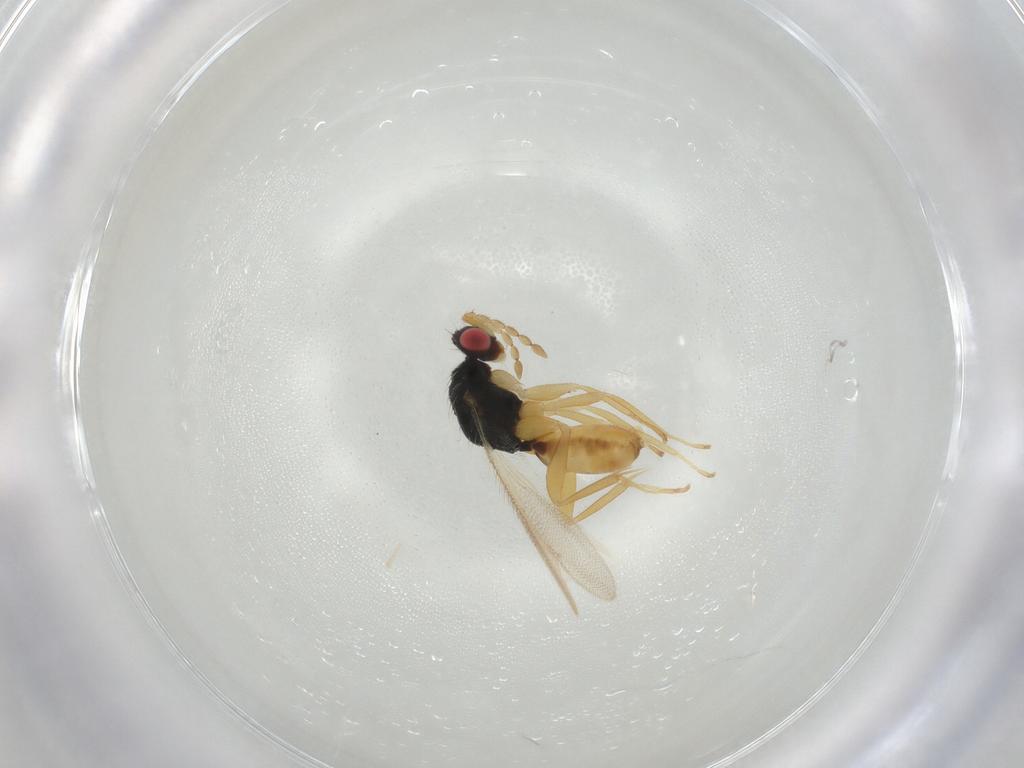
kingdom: Animalia
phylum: Arthropoda
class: Insecta
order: Hymenoptera
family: Eulophidae
